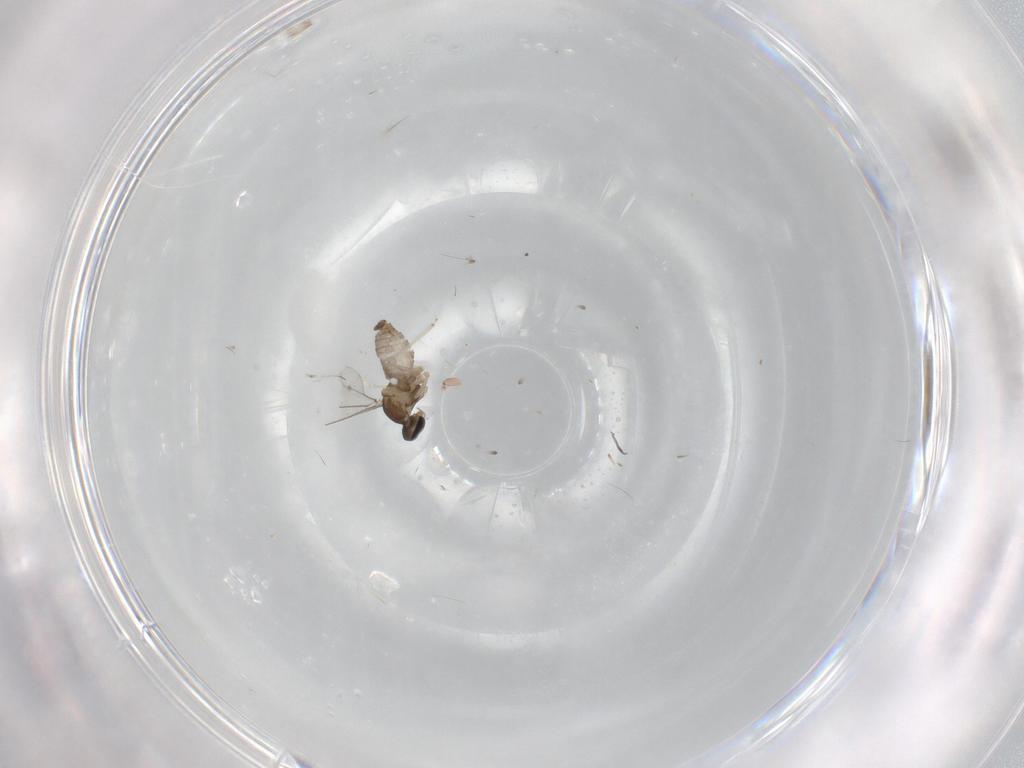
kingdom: Animalia
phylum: Arthropoda
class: Insecta
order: Diptera
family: Cecidomyiidae
